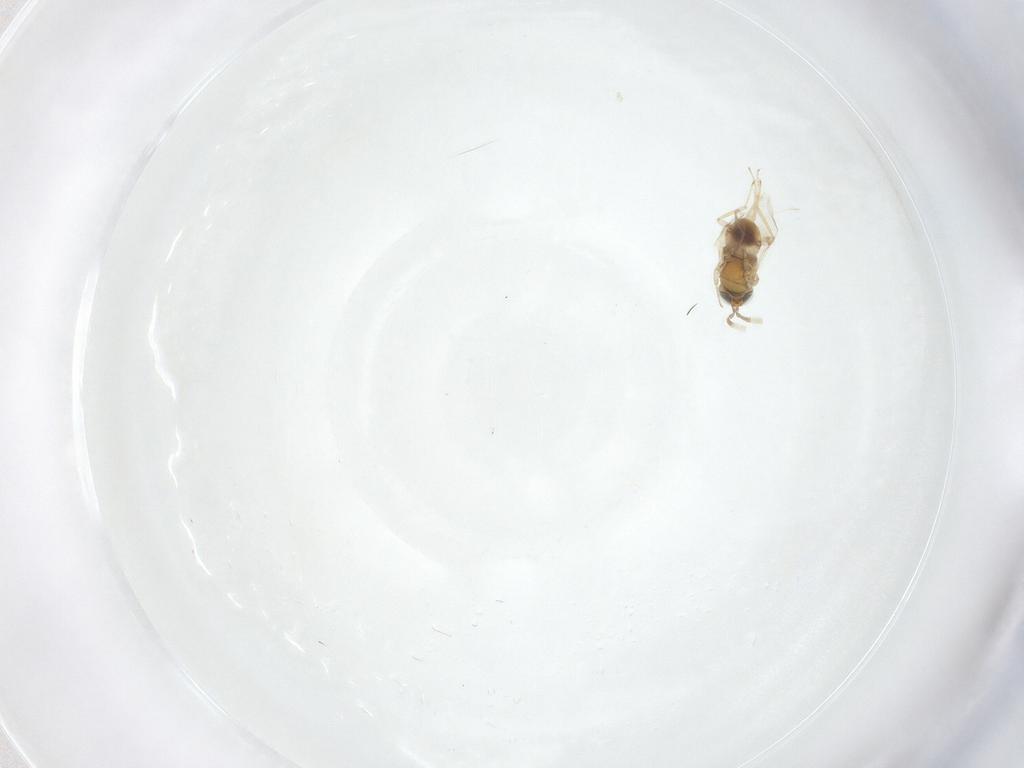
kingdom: Animalia
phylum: Arthropoda
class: Insecta
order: Hymenoptera
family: Encyrtidae
